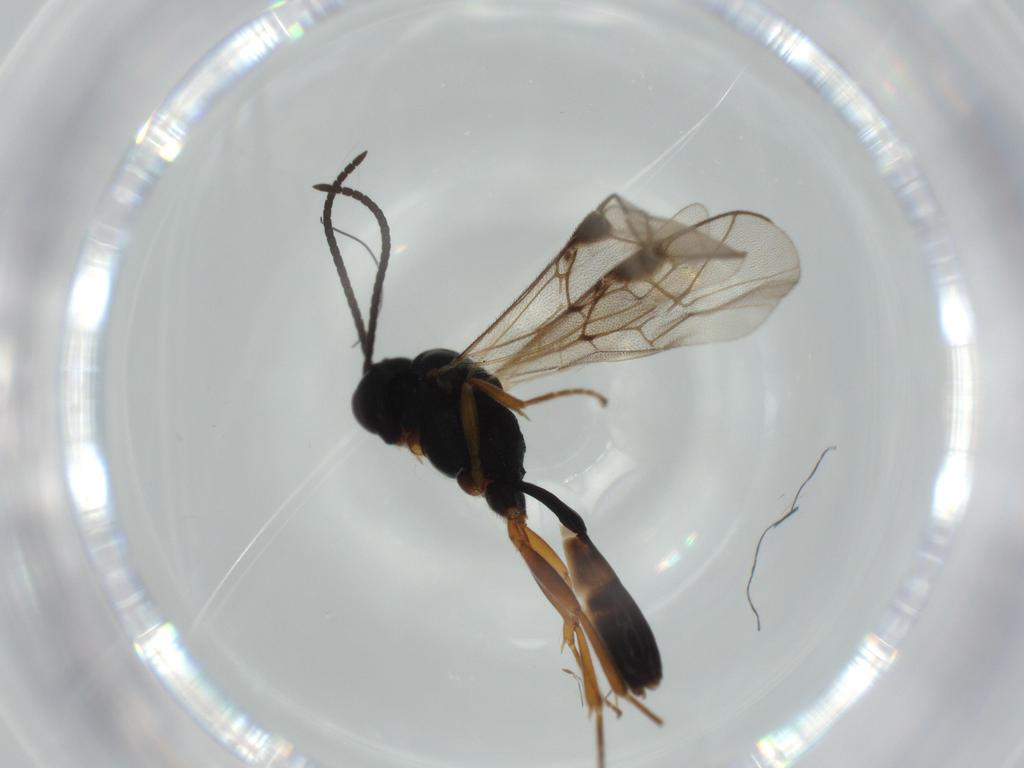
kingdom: Animalia
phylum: Arthropoda
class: Insecta
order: Hymenoptera
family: Ichneumonidae
